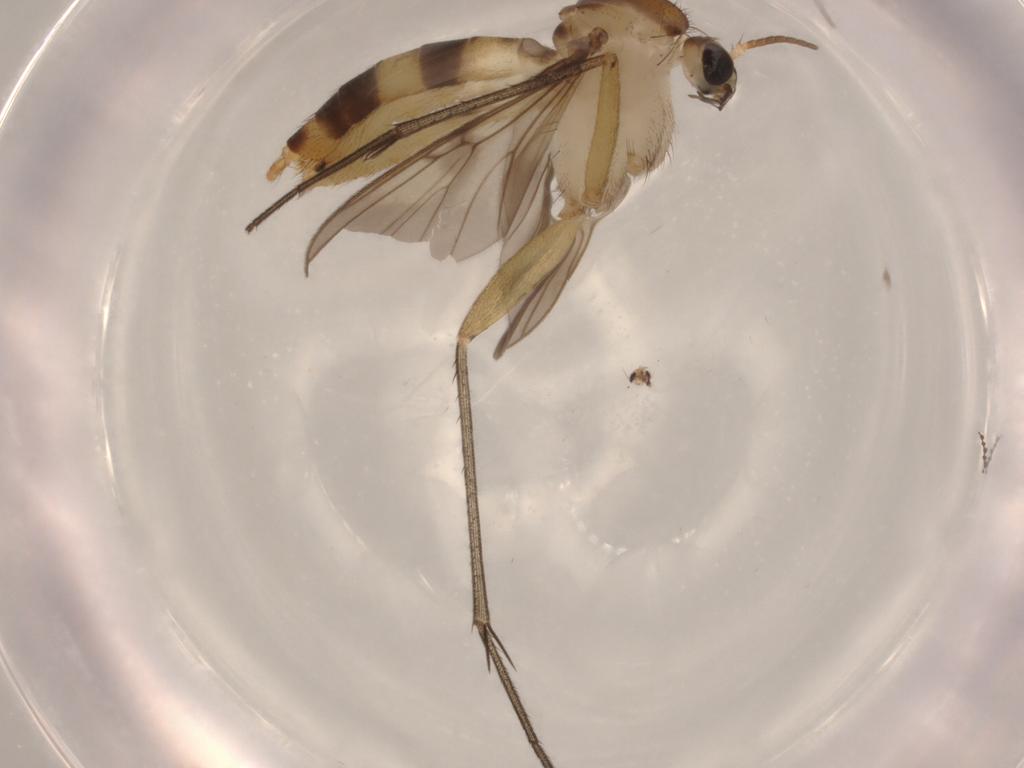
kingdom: Animalia
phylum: Arthropoda
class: Insecta
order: Diptera
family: Mycetophilidae
